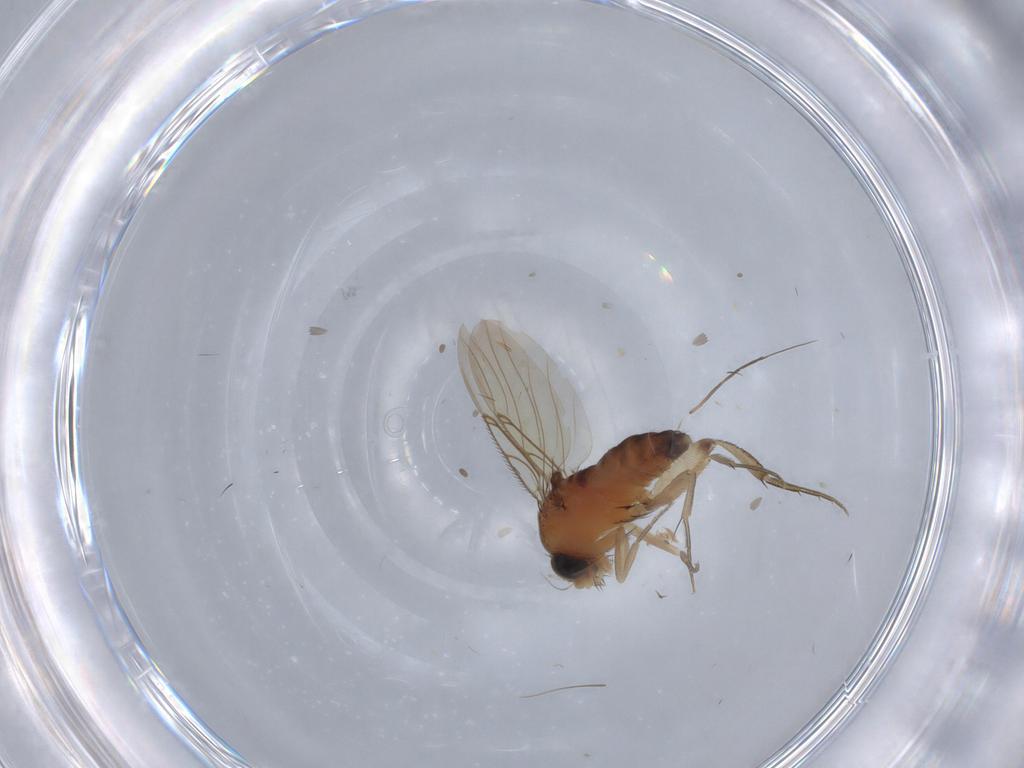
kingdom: Animalia
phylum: Arthropoda
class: Insecta
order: Diptera
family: Phoridae
